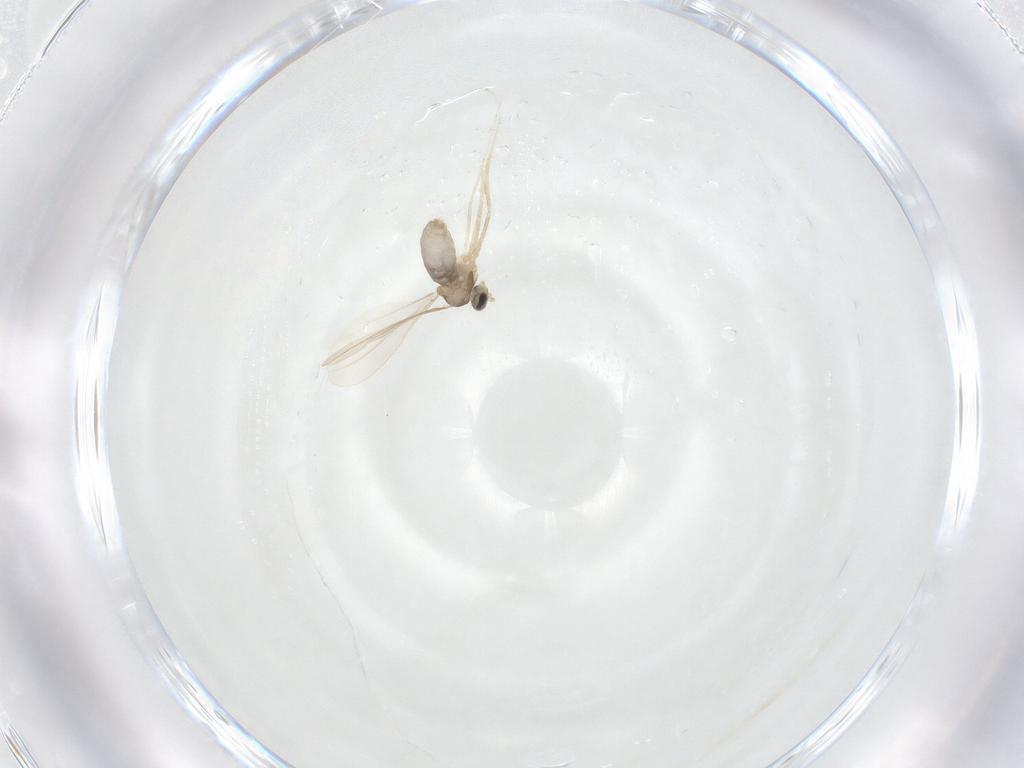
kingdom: Animalia
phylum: Arthropoda
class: Insecta
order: Diptera
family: Cecidomyiidae
